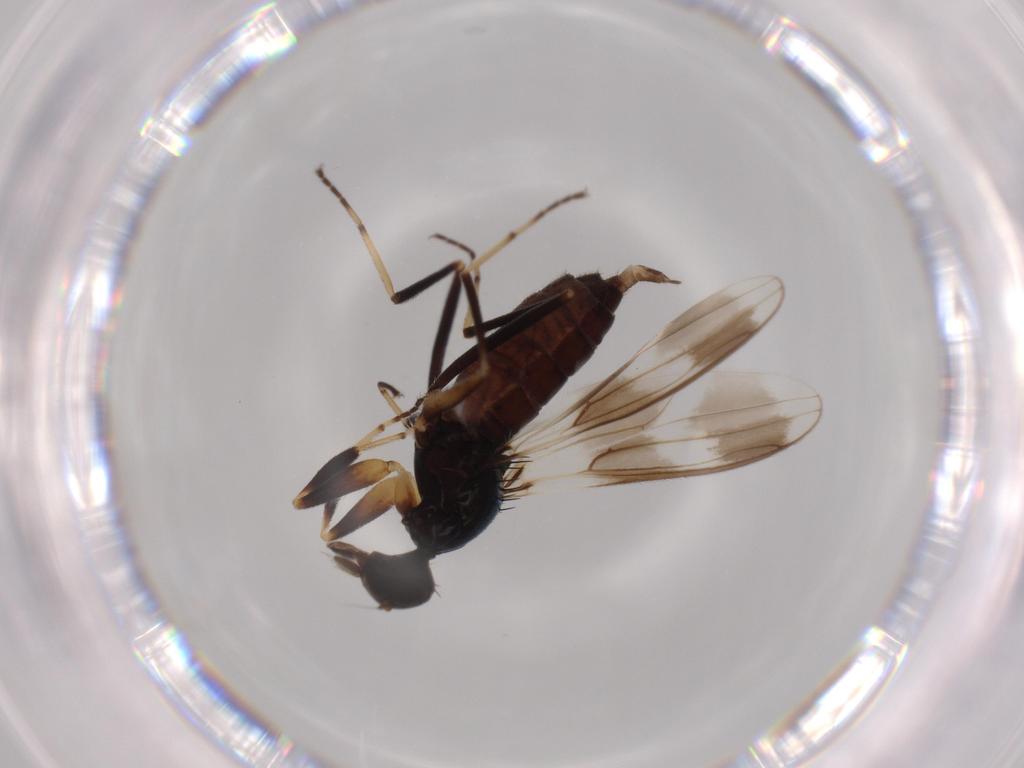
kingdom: Animalia
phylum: Arthropoda
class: Insecta
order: Diptera
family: Hybotidae
